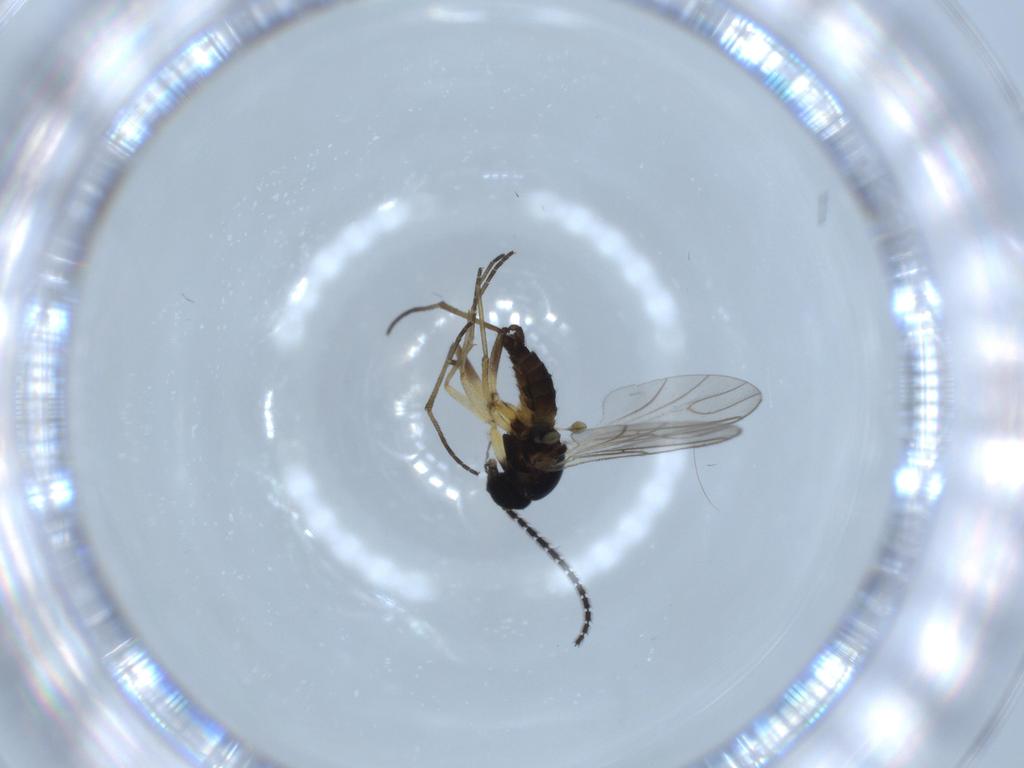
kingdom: Animalia
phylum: Arthropoda
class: Insecta
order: Diptera
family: Sciaridae
